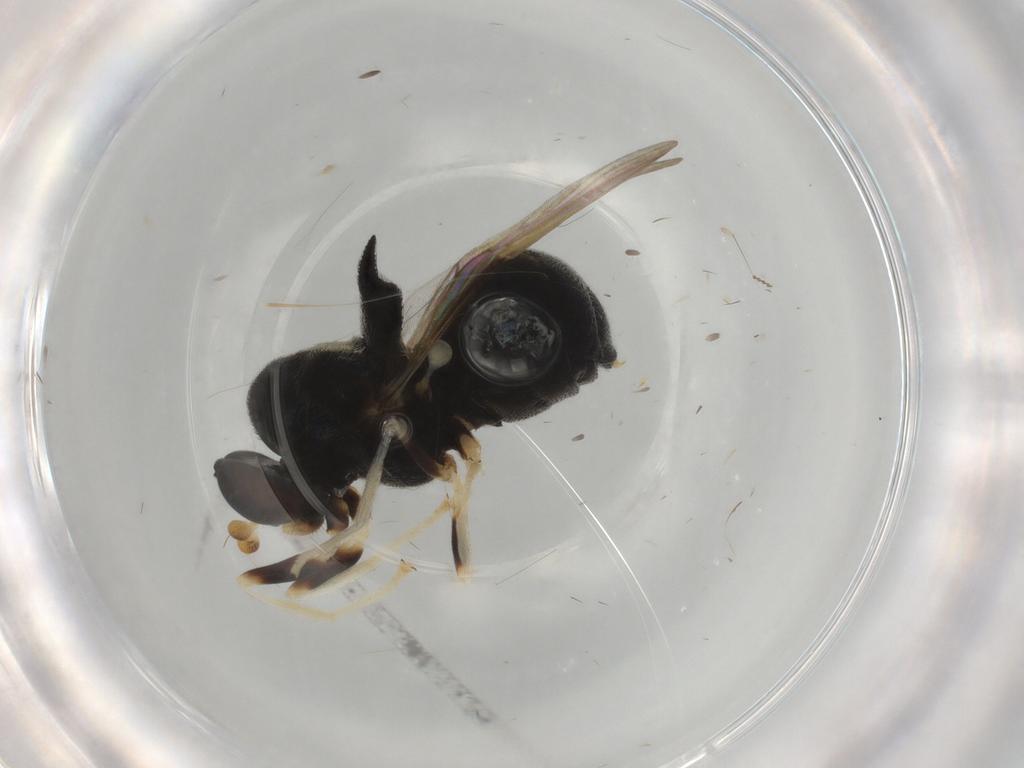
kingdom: Animalia
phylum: Arthropoda
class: Insecta
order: Diptera
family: Stratiomyidae
